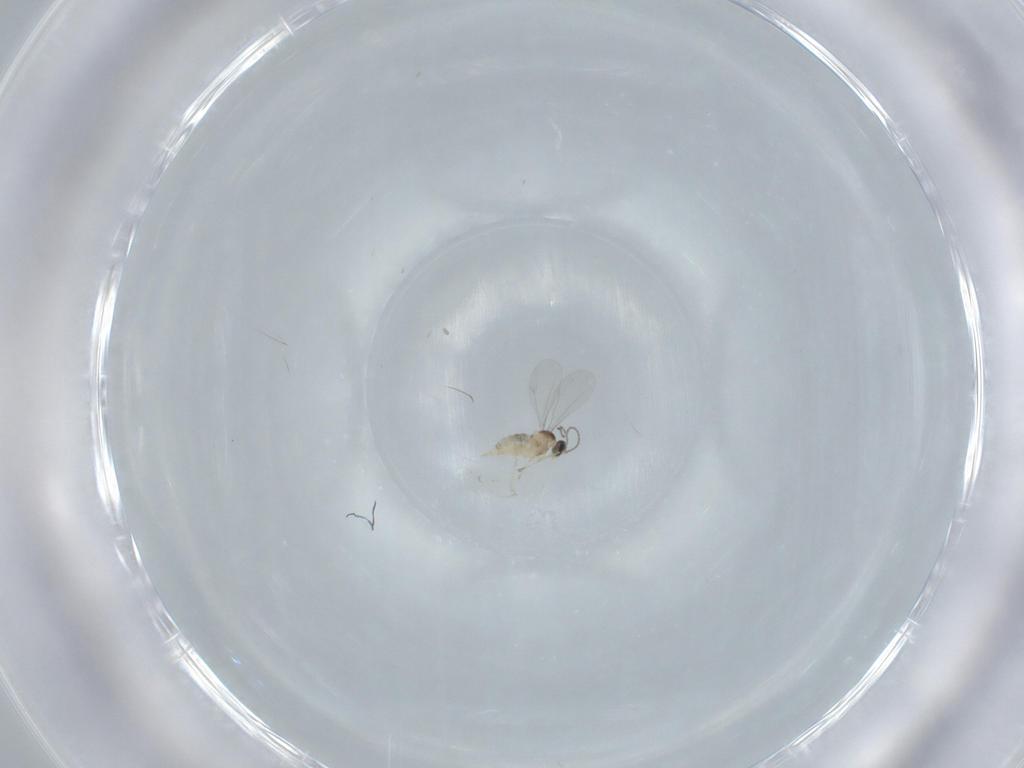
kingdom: Animalia
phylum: Arthropoda
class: Insecta
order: Diptera
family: Cecidomyiidae
